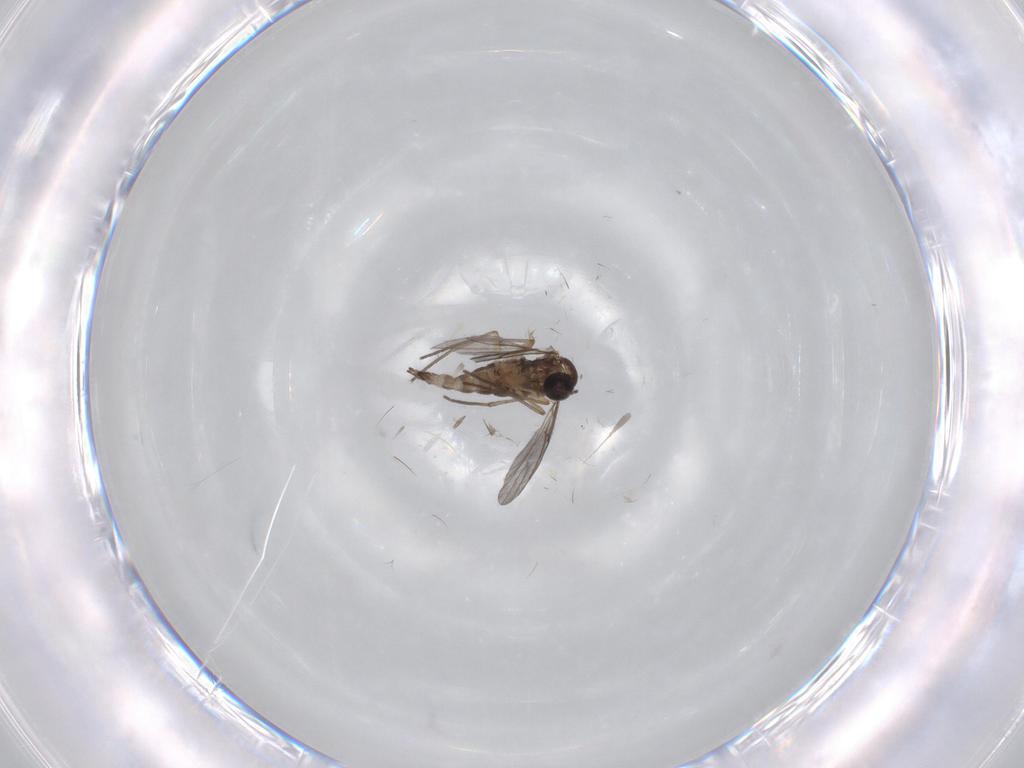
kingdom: Animalia
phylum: Arthropoda
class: Insecta
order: Diptera
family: Sciaridae
